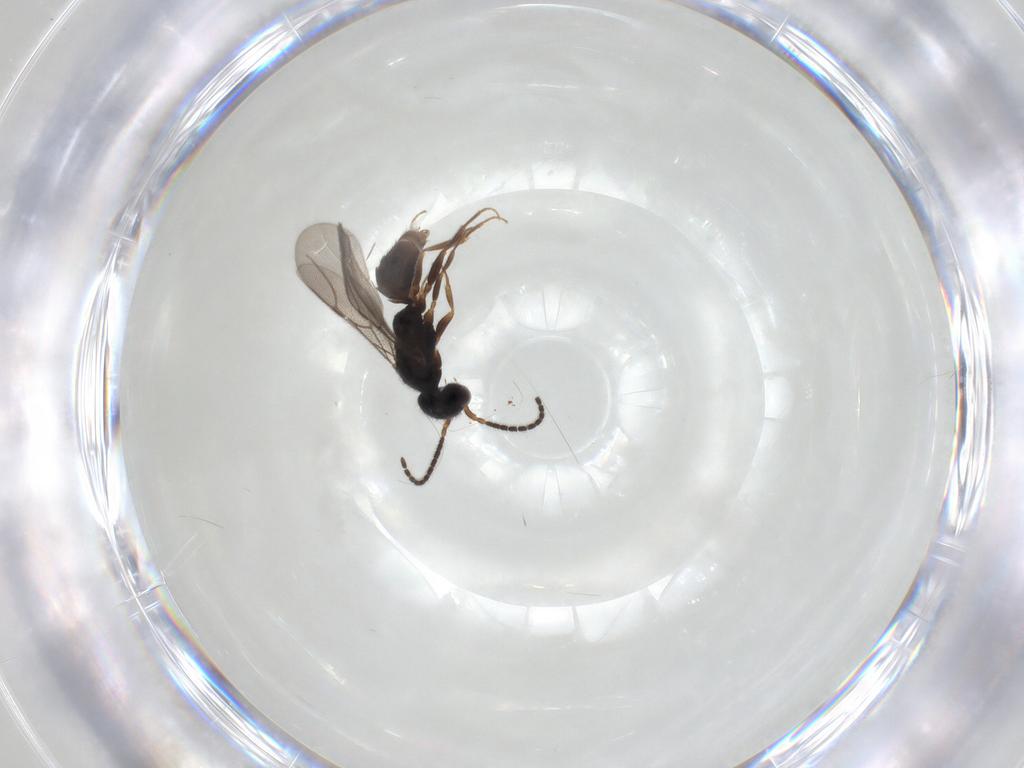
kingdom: Animalia
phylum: Arthropoda
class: Insecta
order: Hymenoptera
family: Bethylidae
